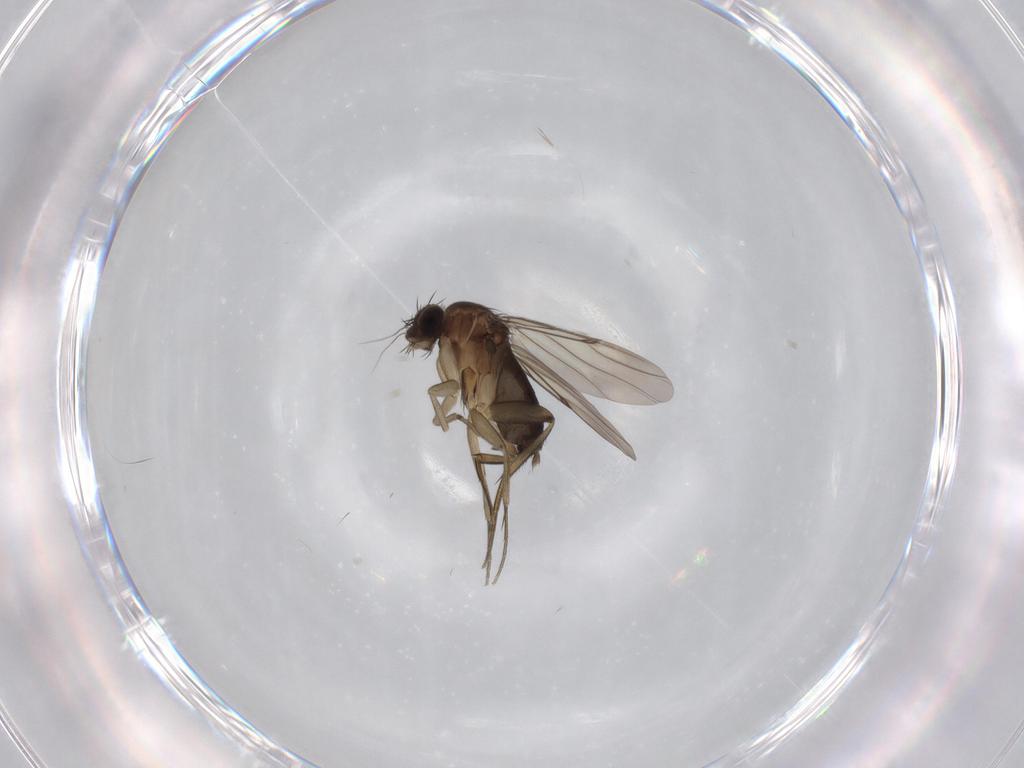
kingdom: Animalia
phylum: Arthropoda
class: Insecta
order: Diptera
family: Phoridae
